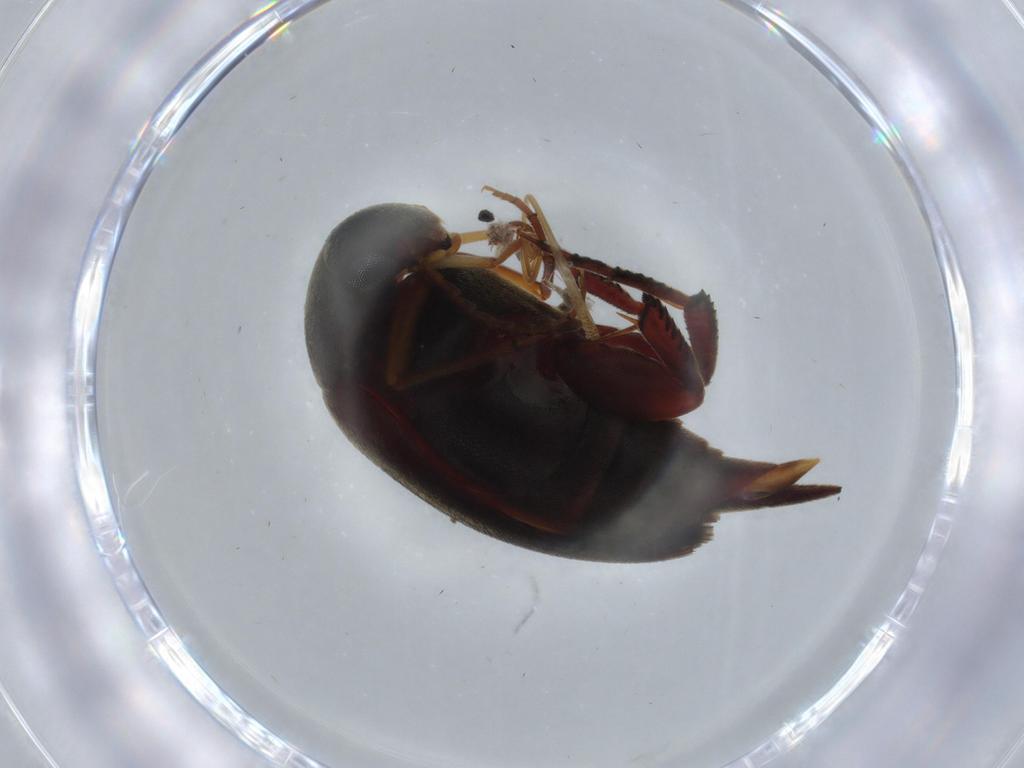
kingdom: Animalia
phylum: Arthropoda
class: Insecta
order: Coleoptera
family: Mordellidae
